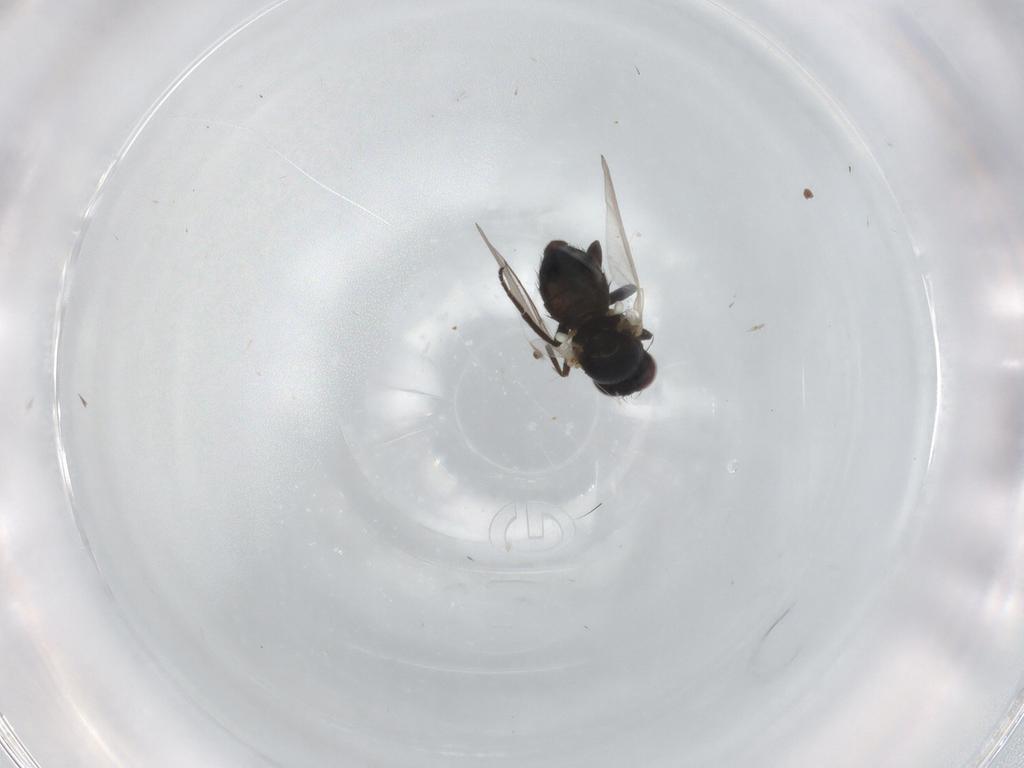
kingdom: Animalia
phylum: Arthropoda
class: Insecta
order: Diptera
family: Agromyzidae
